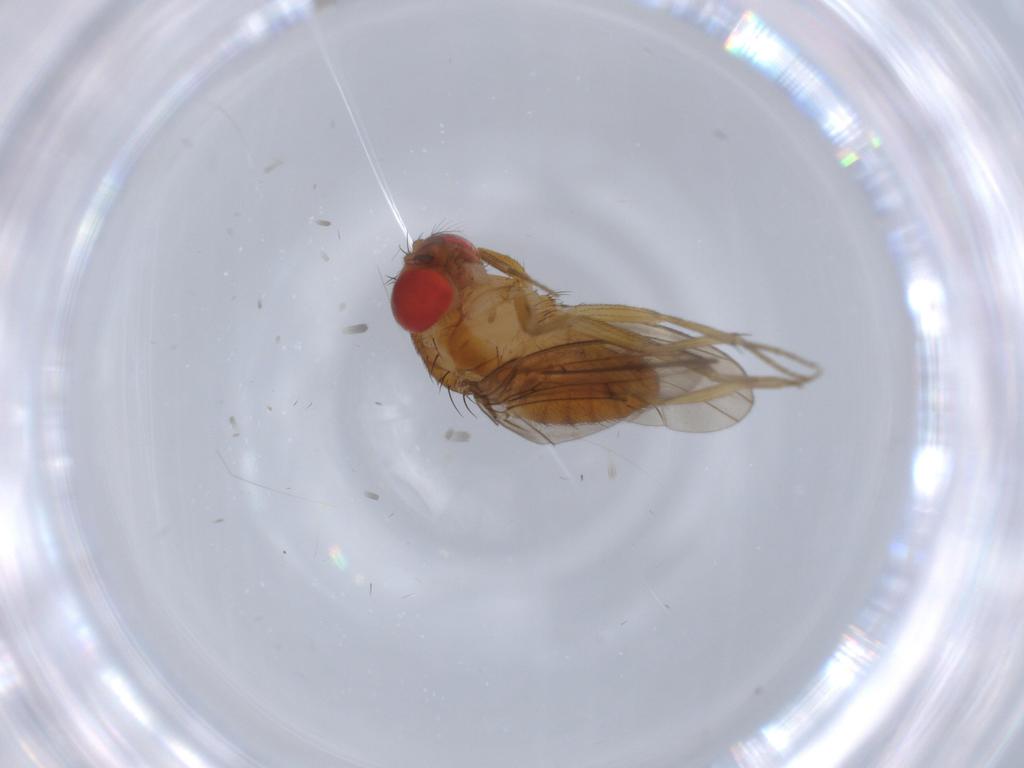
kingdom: Animalia
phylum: Arthropoda
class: Insecta
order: Diptera
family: Drosophilidae
